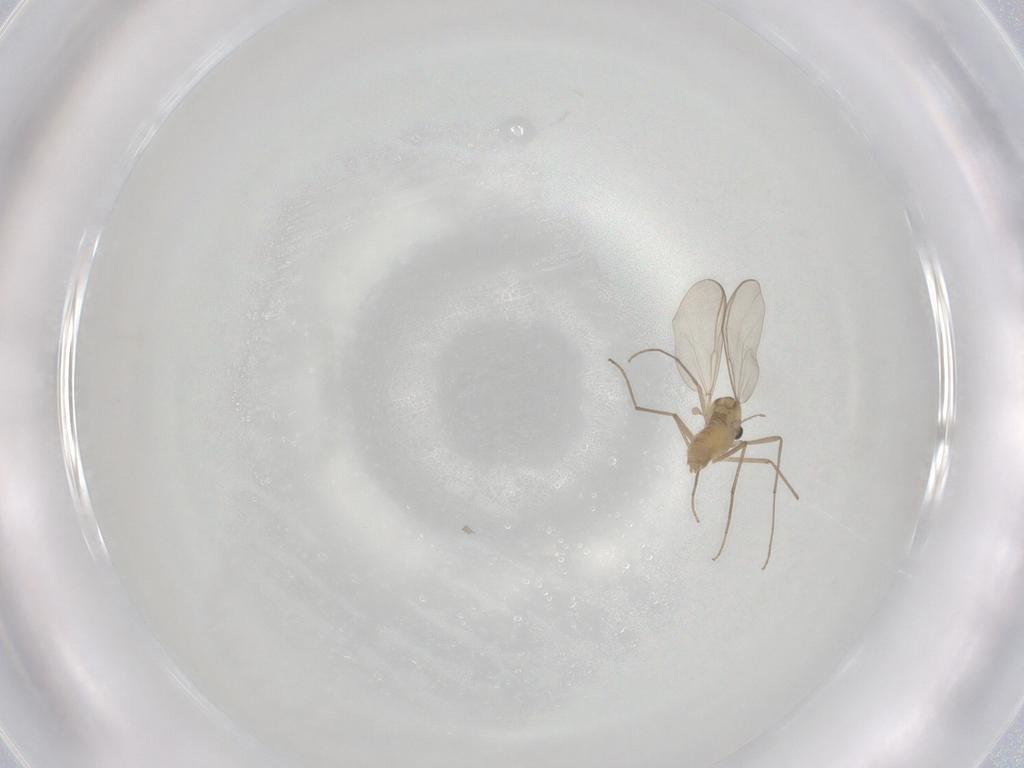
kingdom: Animalia
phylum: Arthropoda
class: Insecta
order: Diptera
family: Chironomidae
